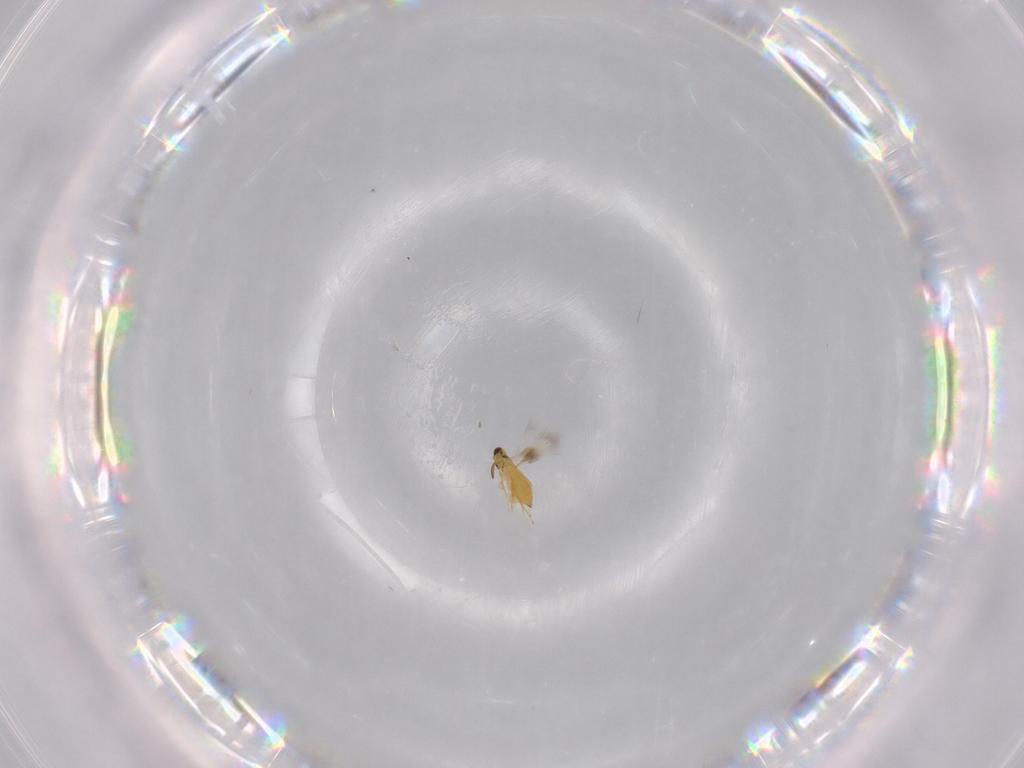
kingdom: Animalia
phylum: Arthropoda
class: Insecta
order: Hymenoptera
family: Signiphoridae
